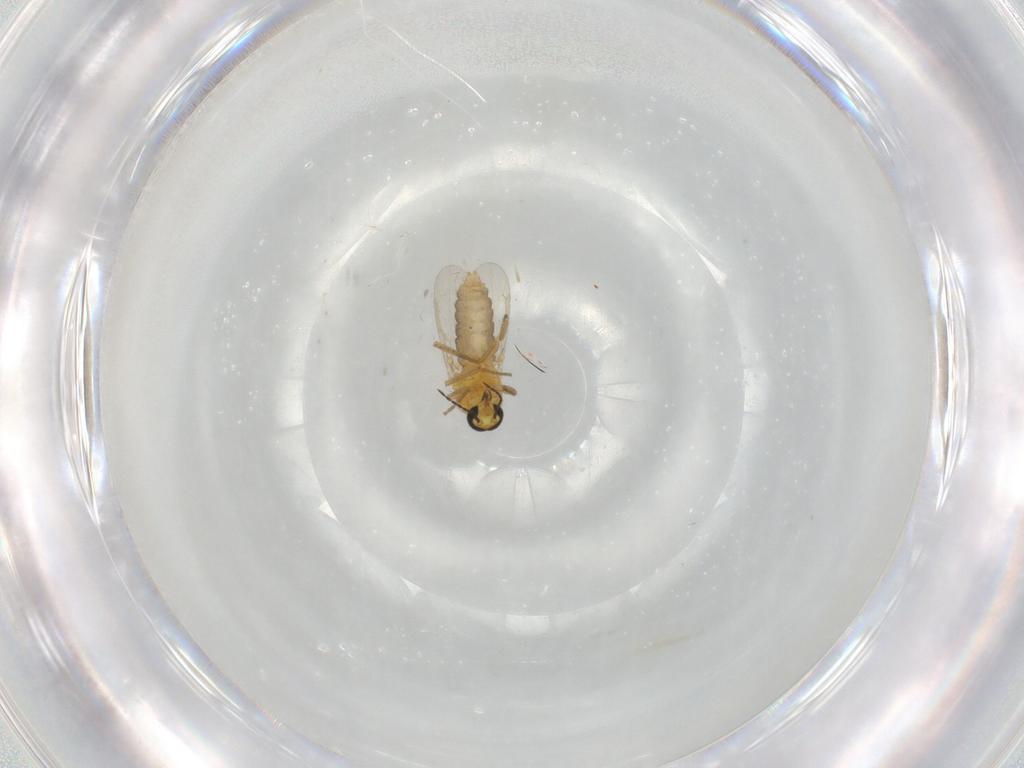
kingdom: Animalia
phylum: Arthropoda
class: Insecta
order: Diptera
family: Ceratopogonidae
